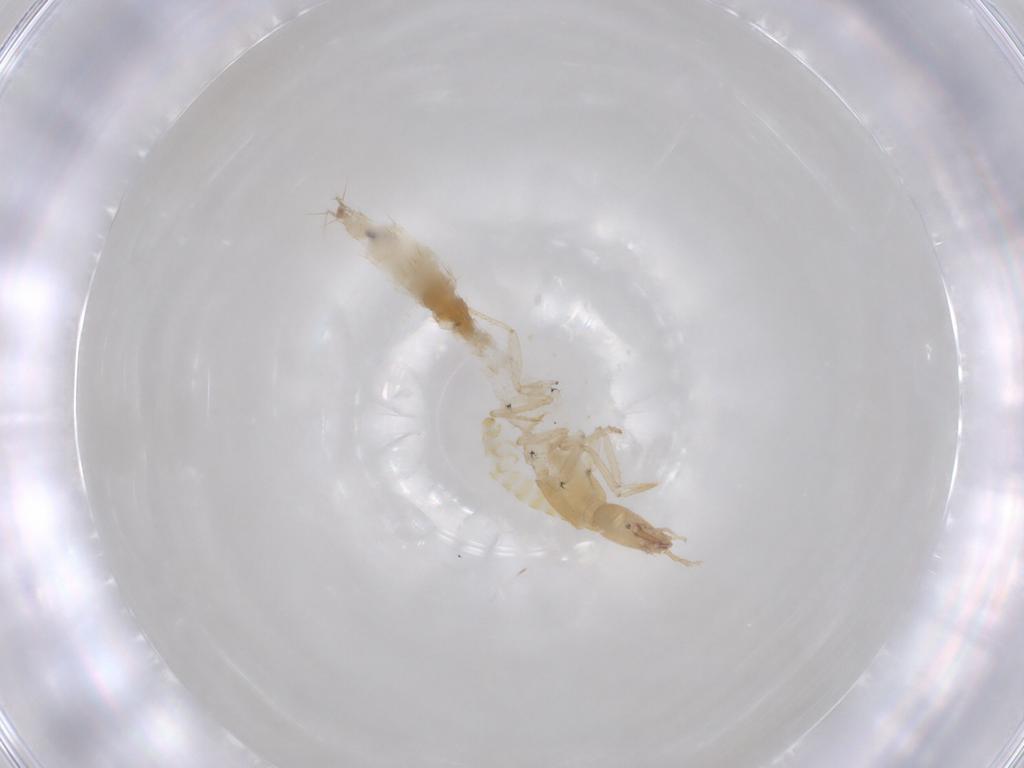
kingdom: Animalia
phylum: Arthropoda
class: Insecta
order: Coleoptera
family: Staphylinidae
